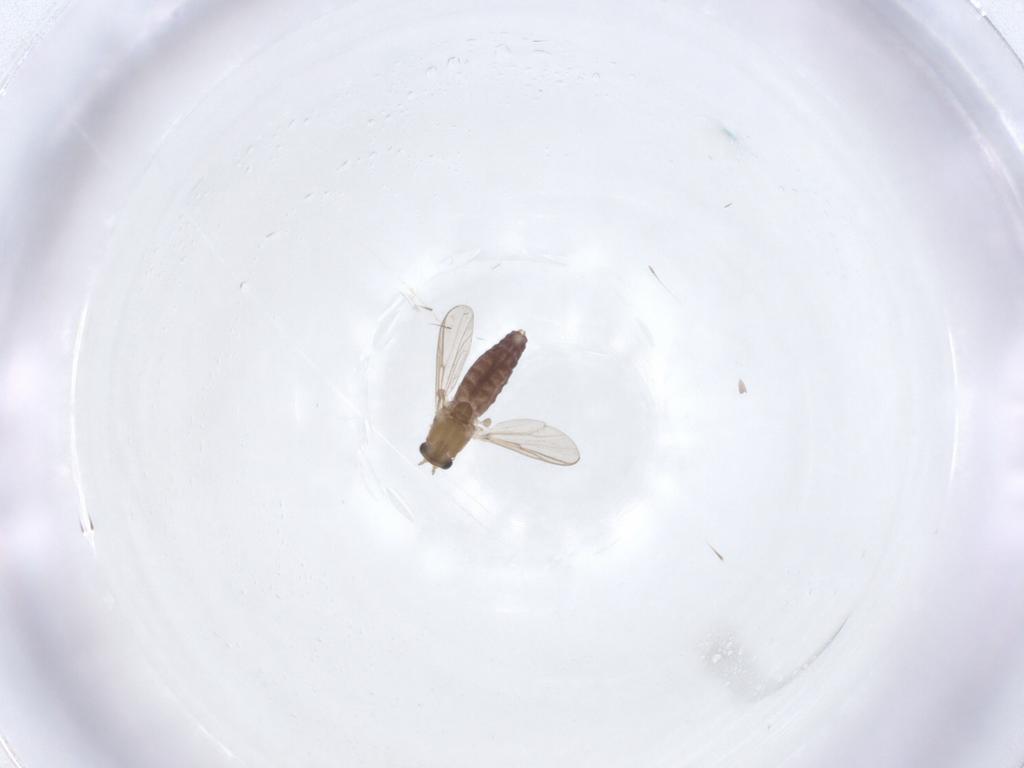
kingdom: Animalia
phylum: Arthropoda
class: Insecta
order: Diptera
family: Chironomidae
